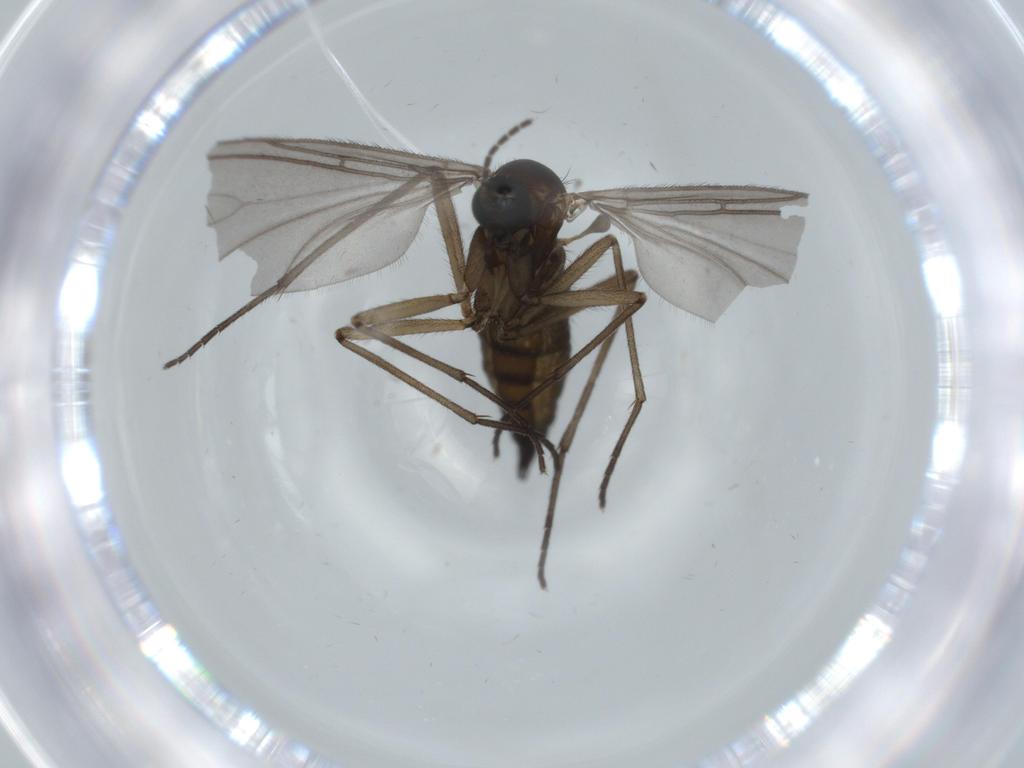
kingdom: Animalia
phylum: Arthropoda
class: Insecta
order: Diptera
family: Sciaridae
